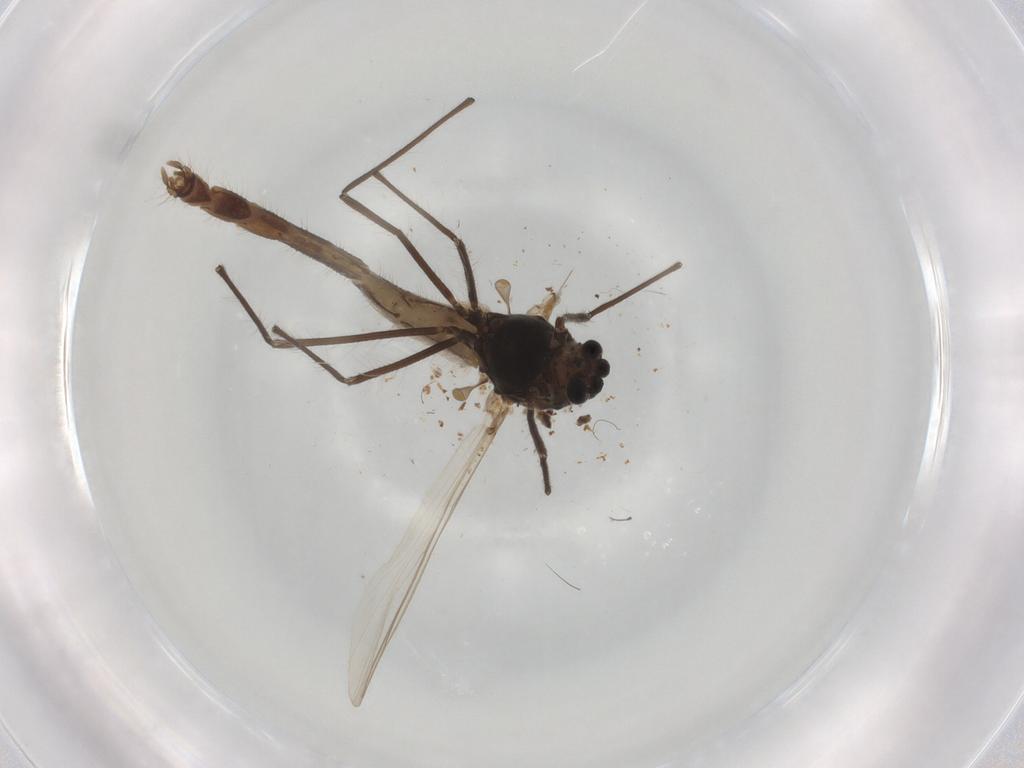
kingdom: Animalia
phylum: Arthropoda
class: Insecta
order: Diptera
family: Chironomidae
